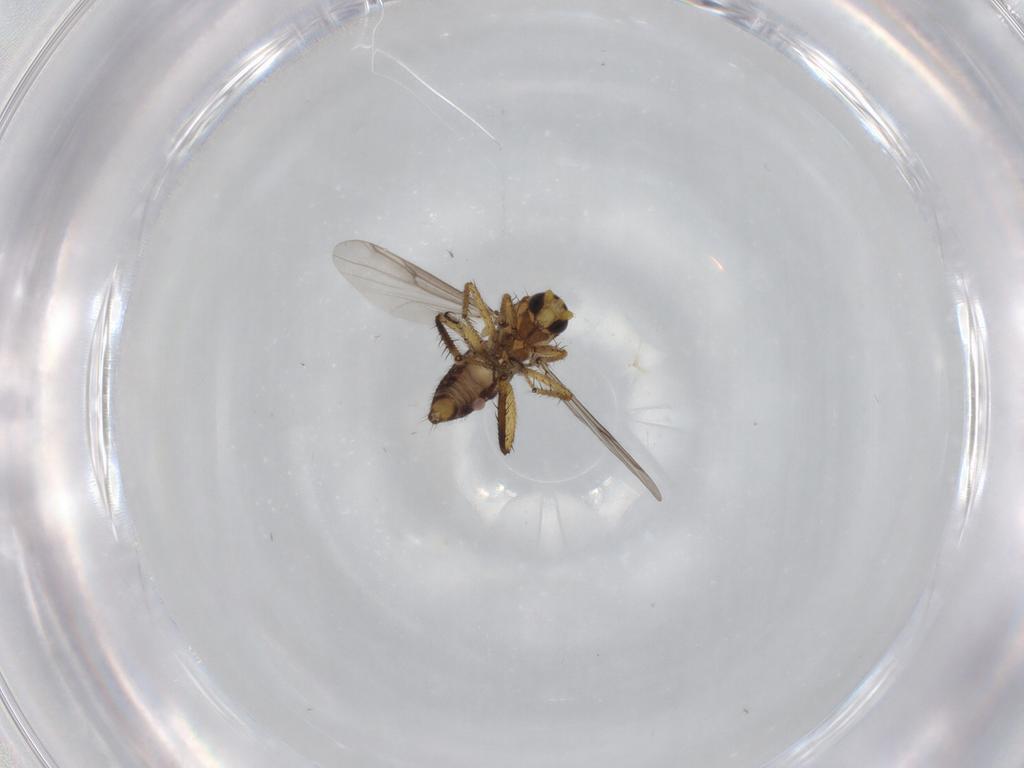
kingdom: Animalia
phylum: Arthropoda
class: Insecta
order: Diptera
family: Ceratopogonidae
